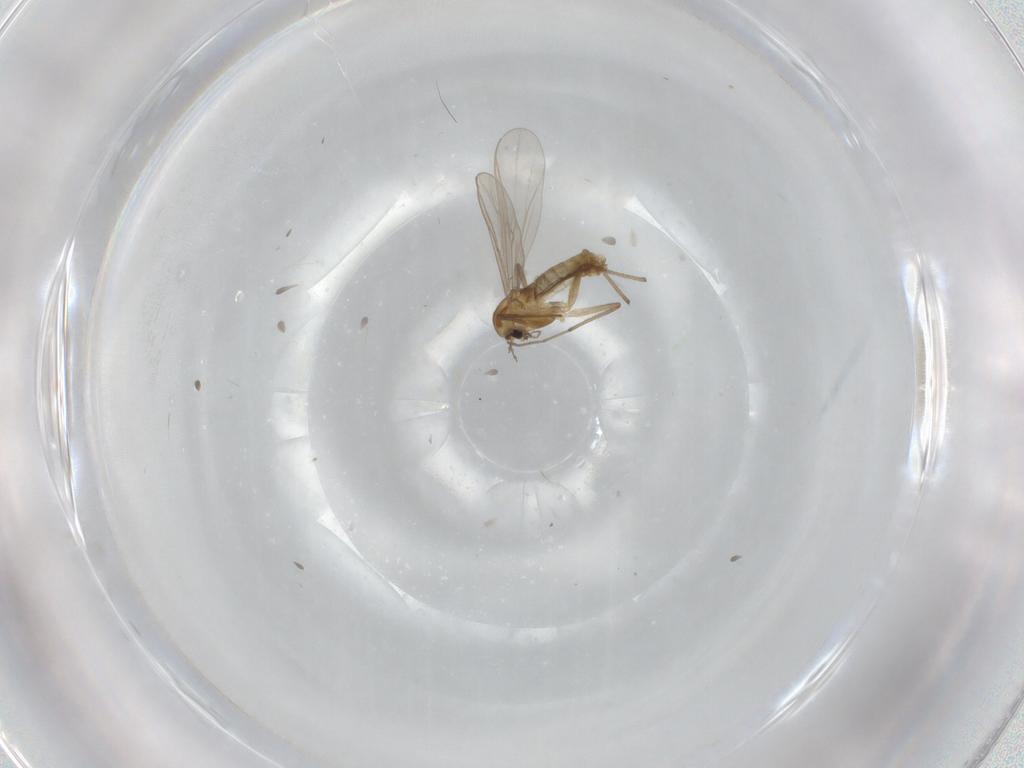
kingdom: Animalia
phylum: Arthropoda
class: Insecta
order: Diptera
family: Chironomidae
